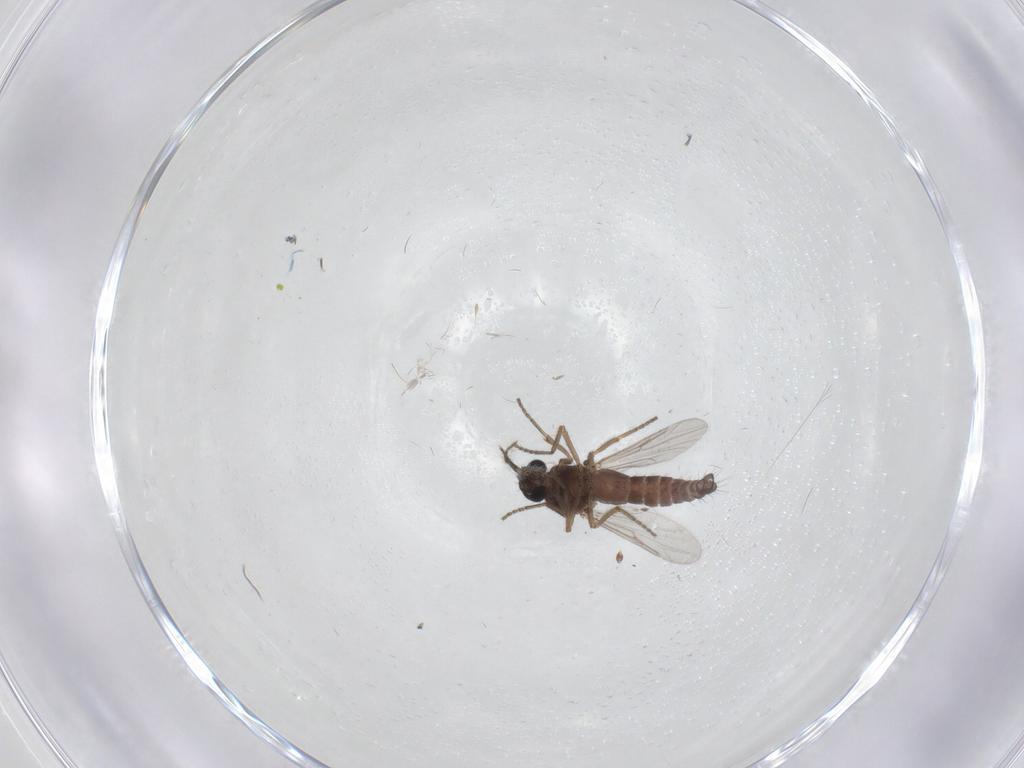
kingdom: Animalia
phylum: Arthropoda
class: Insecta
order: Diptera
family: Ceratopogonidae
